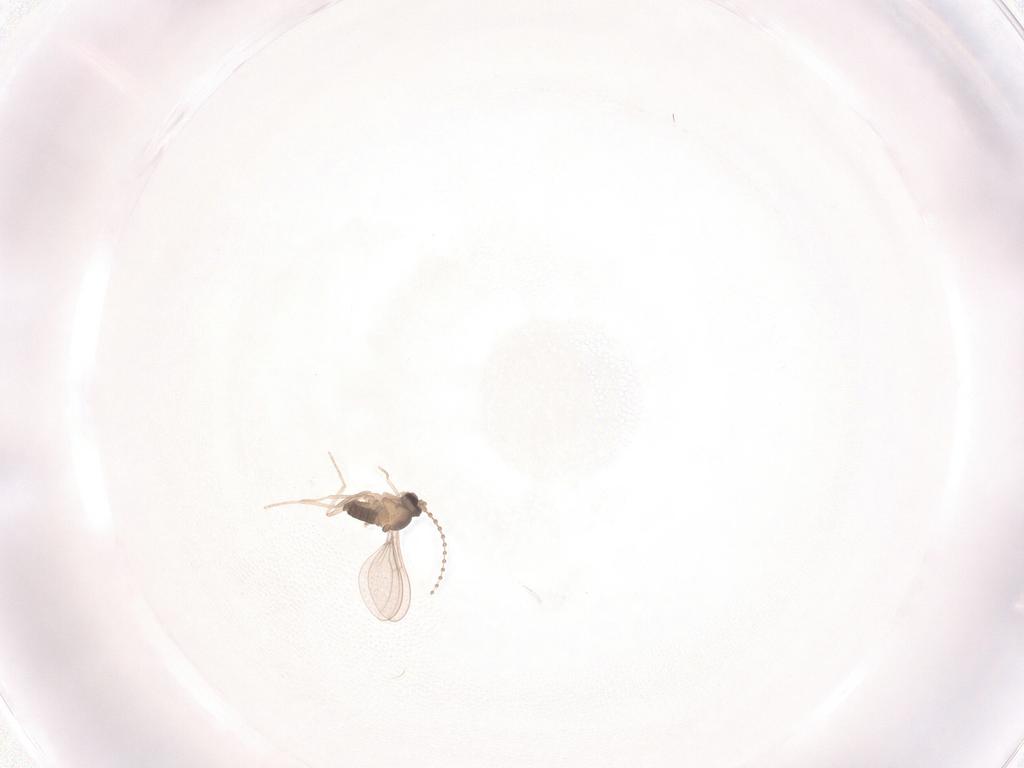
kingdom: Animalia
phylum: Arthropoda
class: Insecta
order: Diptera
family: Cecidomyiidae
